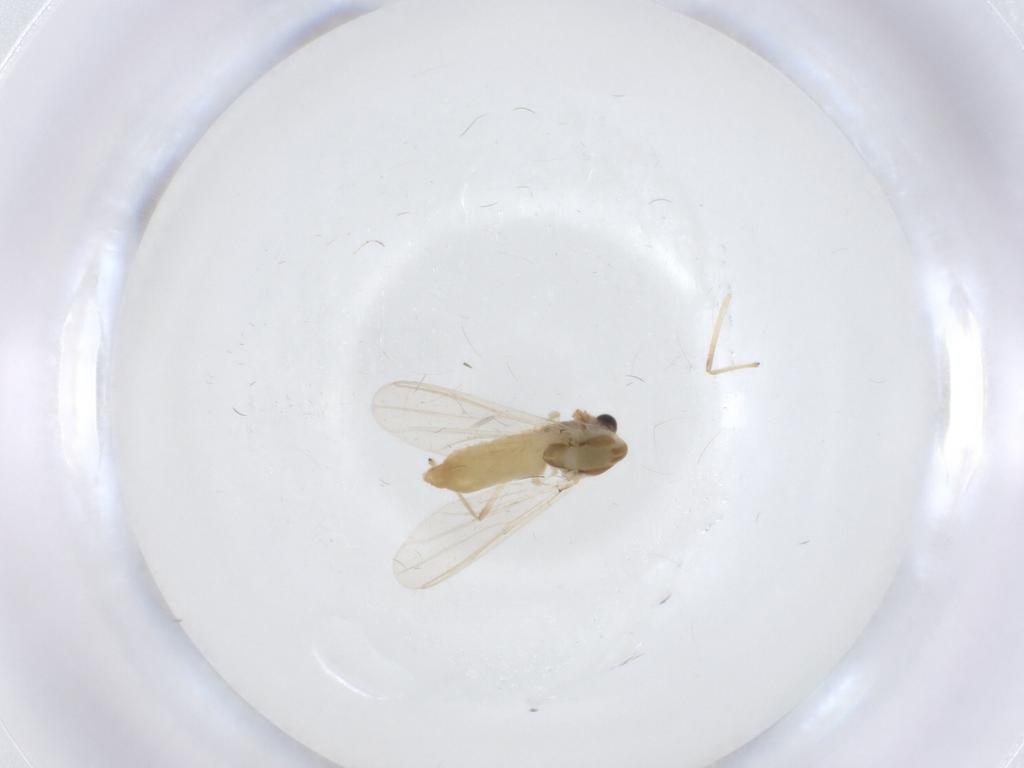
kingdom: Animalia
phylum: Arthropoda
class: Insecta
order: Diptera
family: Chironomidae
